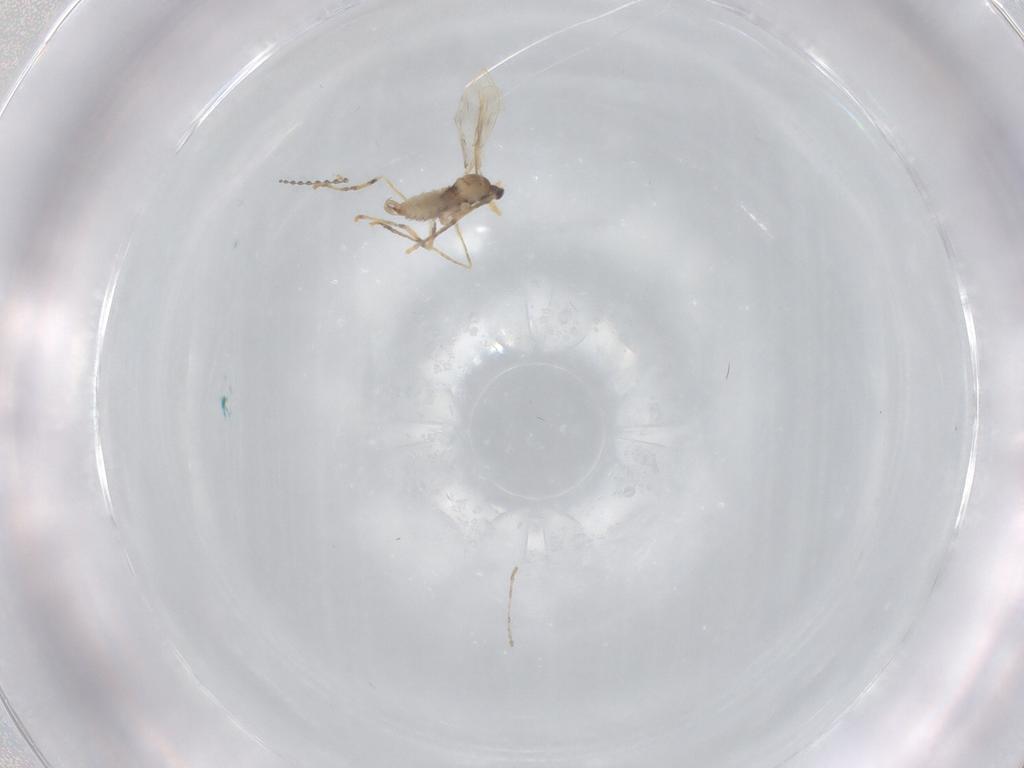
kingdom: Animalia
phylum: Arthropoda
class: Insecta
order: Diptera
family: Cecidomyiidae
